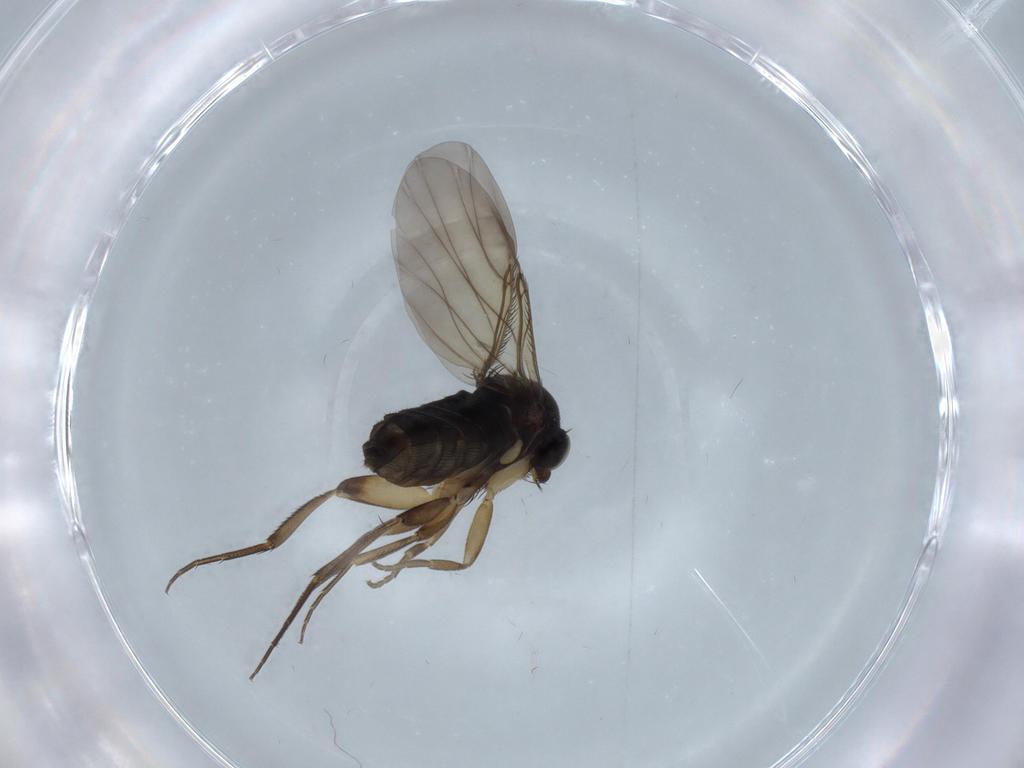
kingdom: Animalia
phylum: Arthropoda
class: Insecta
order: Diptera
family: Phoridae
